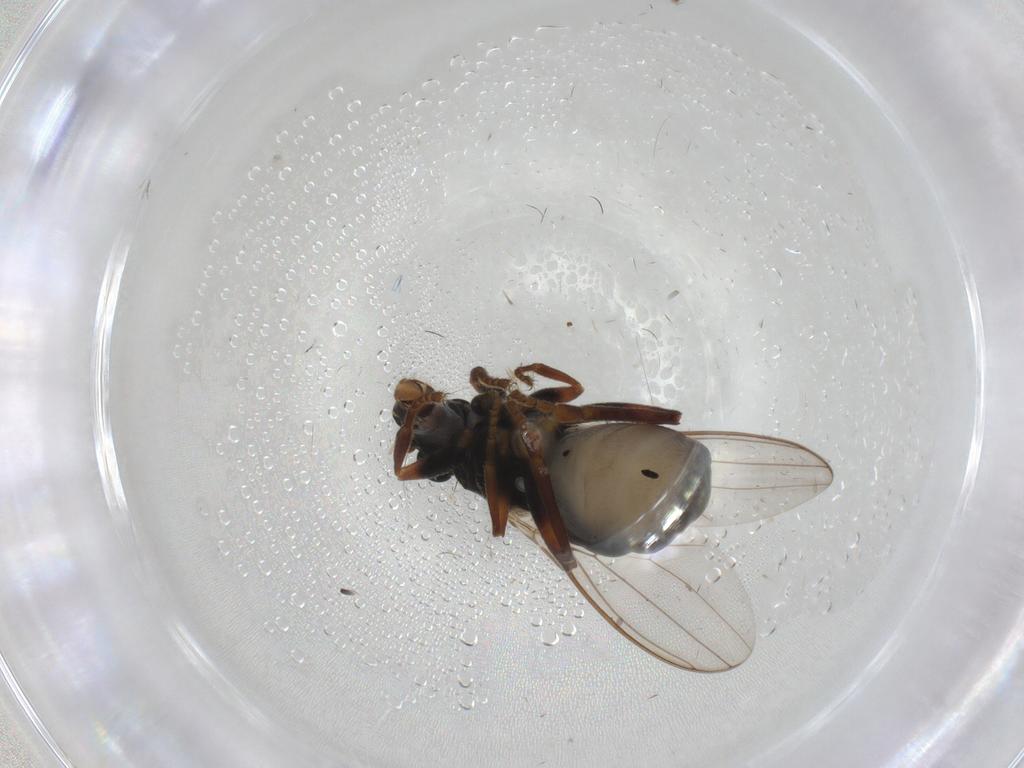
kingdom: Animalia
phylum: Arthropoda
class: Insecta
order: Diptera
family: Sphaeroceridae
